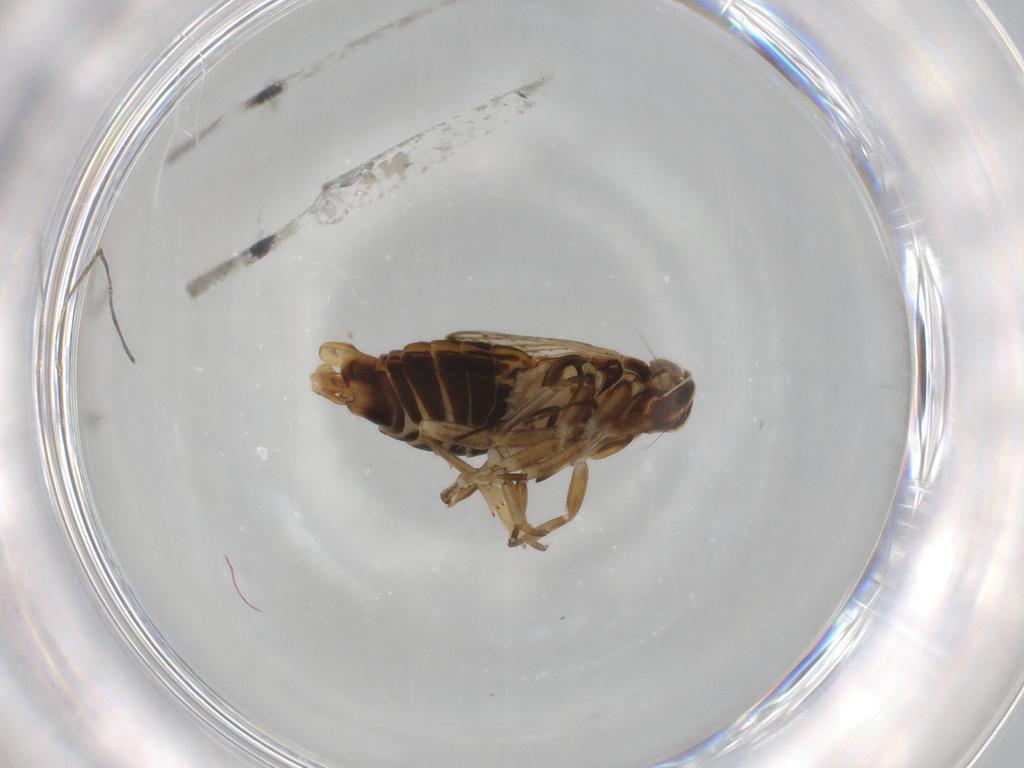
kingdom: Animalia
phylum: Arthropoda
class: Insecta
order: Hemiptera
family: Cixiidae
